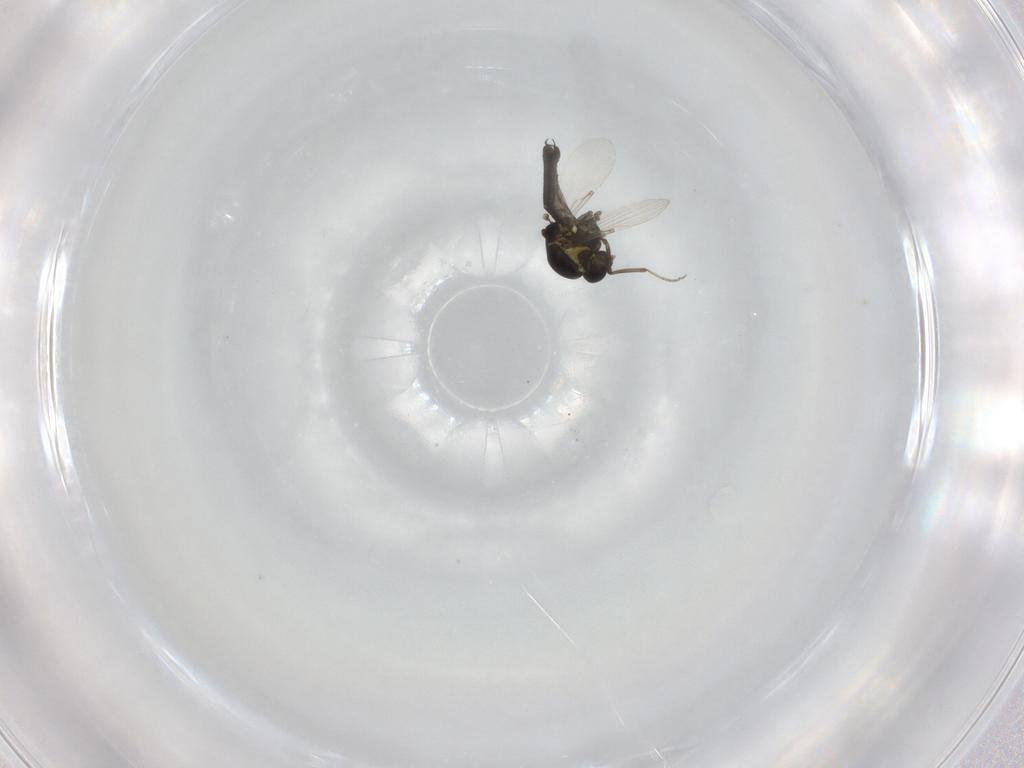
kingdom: Animalia
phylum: Arthropoda
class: Insecta
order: Diptera
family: Ceratopogonidae
